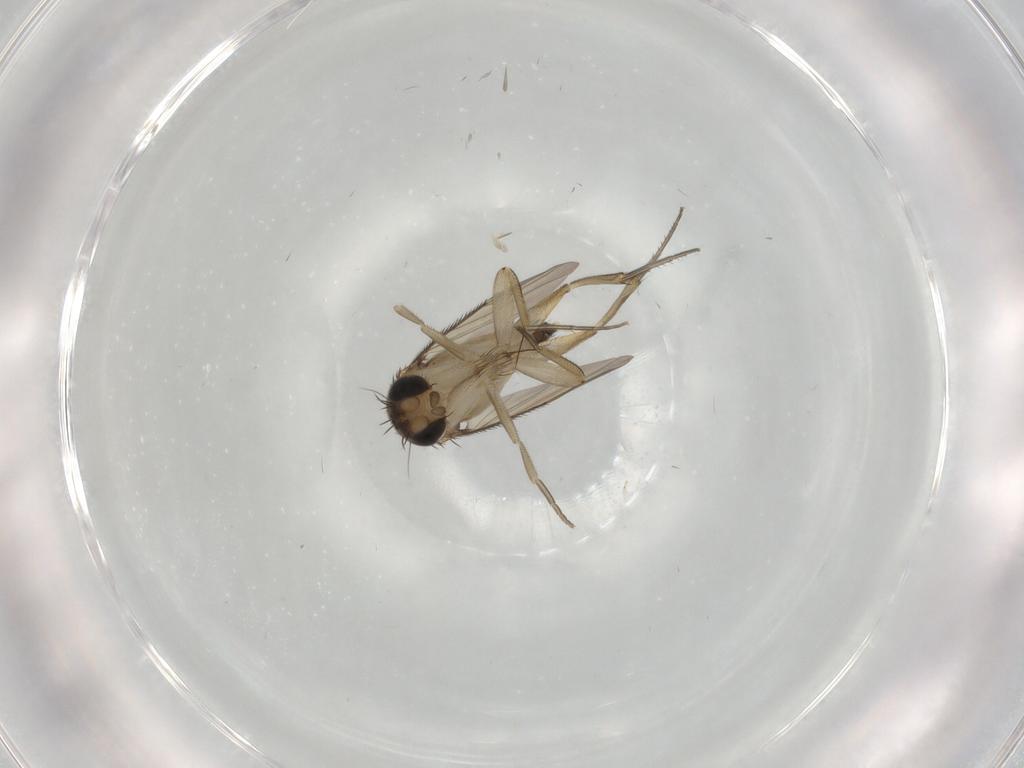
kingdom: Animalia
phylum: Arthropoda
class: Insecta
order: Diptera
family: Phoridae
